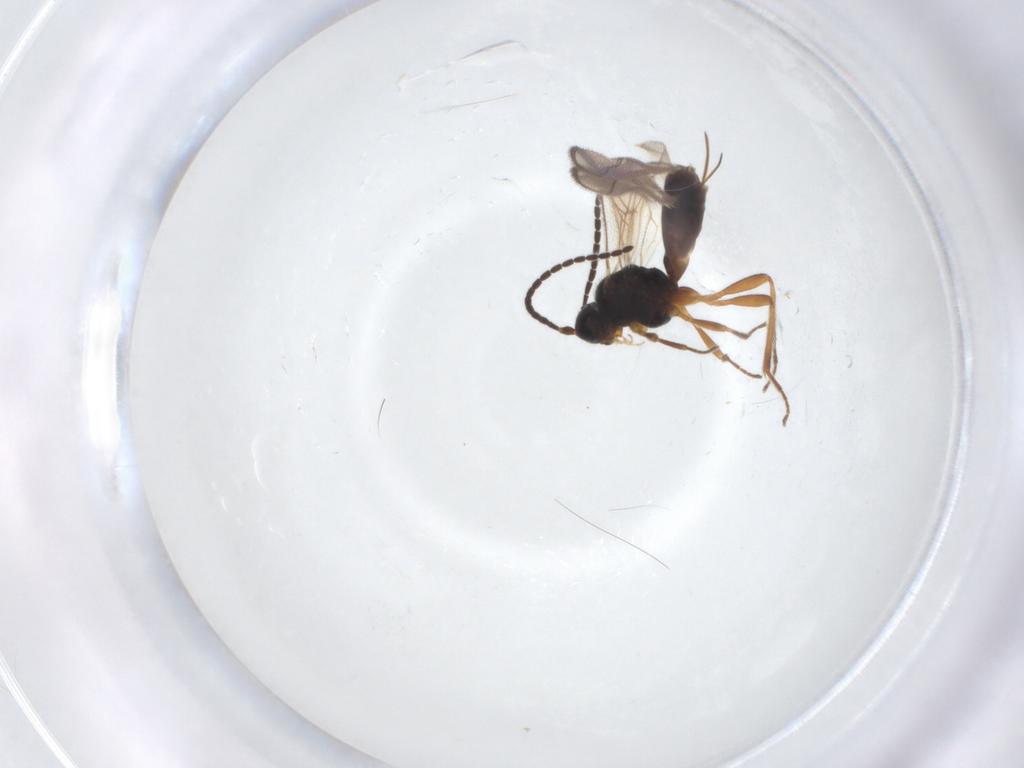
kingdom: Animalia
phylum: Arthropoda
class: Insecta
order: Hymenoptera
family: Braconidae
